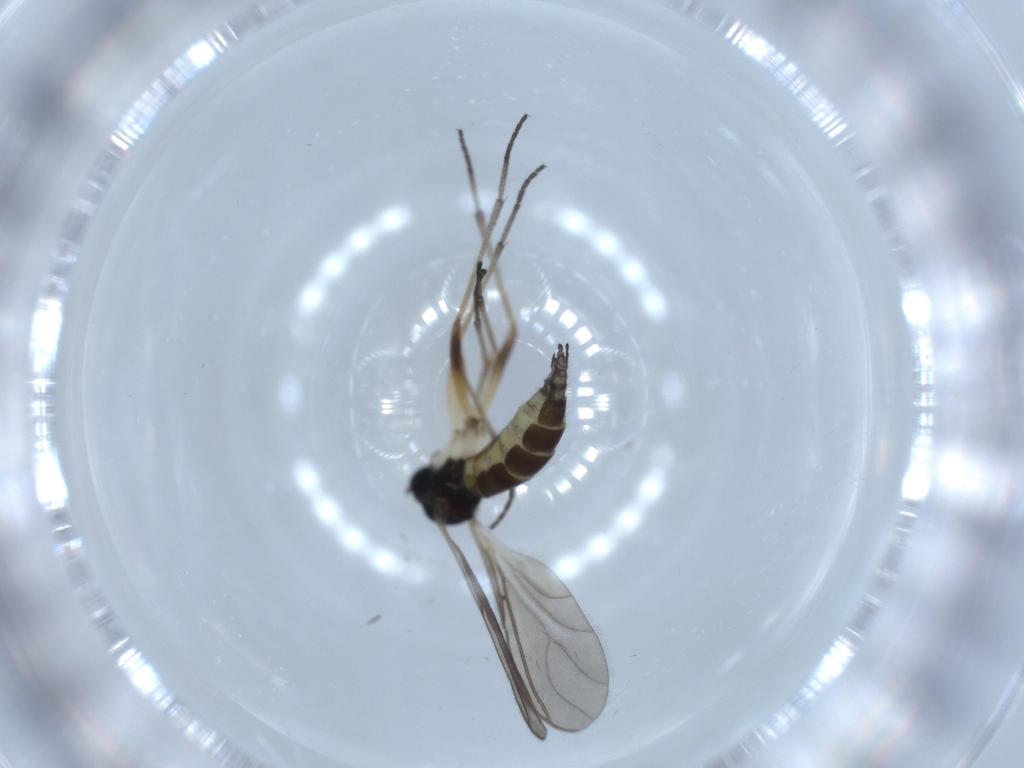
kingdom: Animalia
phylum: Arthropoda
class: Insecta
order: Diptera
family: Sciaridae
